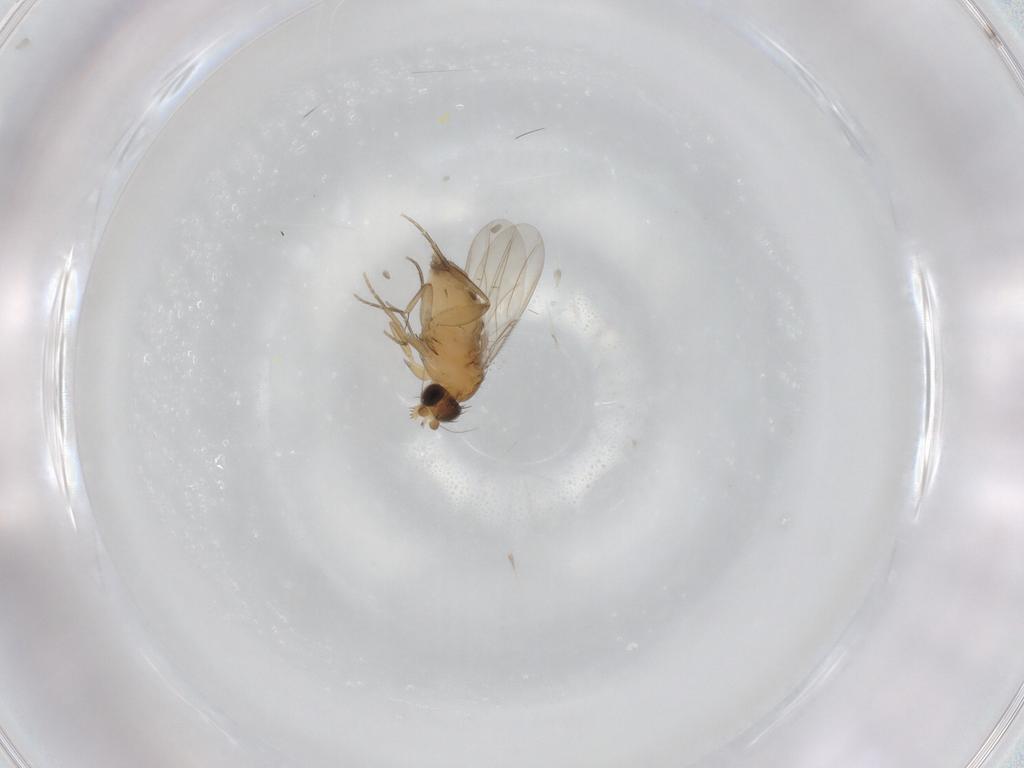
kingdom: Animalia
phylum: Arthropoda
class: Insecta
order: Diptera
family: Phoridae
